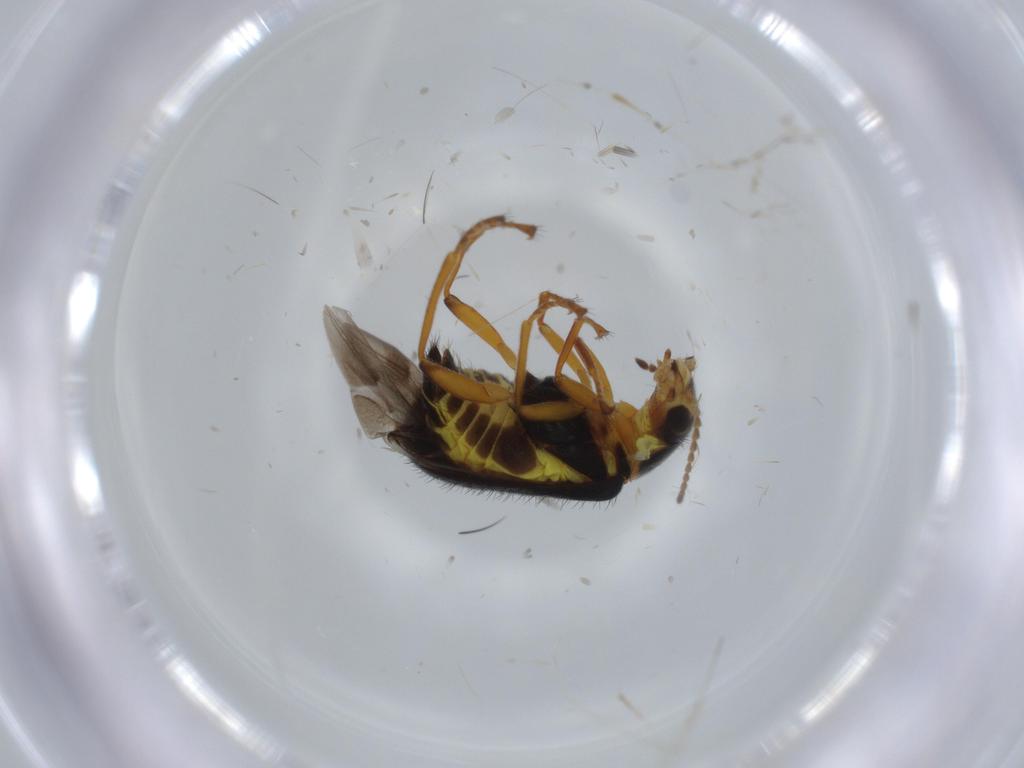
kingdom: Animalia
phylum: Arthropoda
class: Insecta
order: Coleoptera
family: Melyridae
